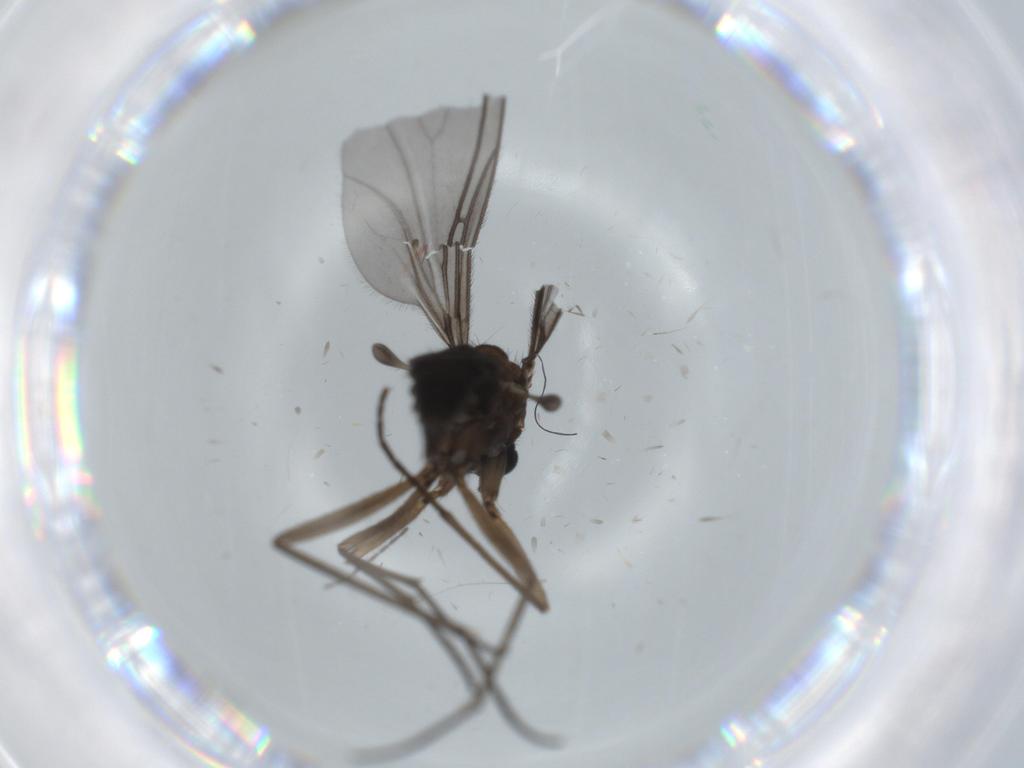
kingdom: Animalia
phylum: Arthropoda
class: Insecta
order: Diptera
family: Sciaridae
